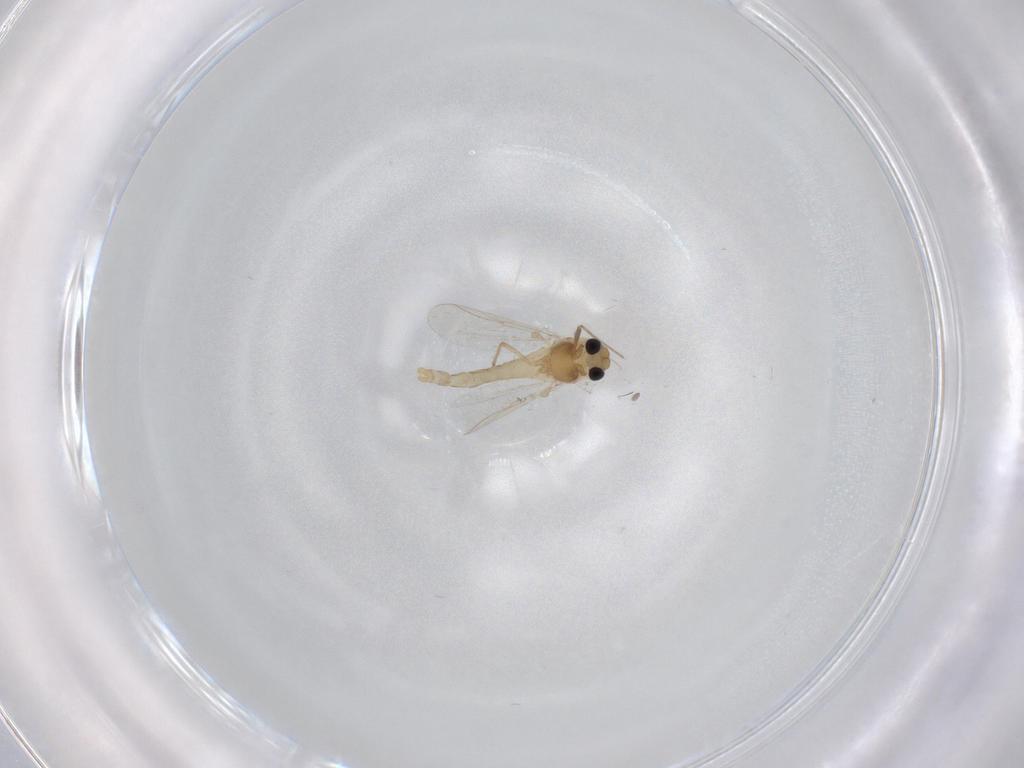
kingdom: Animalia
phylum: Arthropoda
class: Insecta
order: Diptera
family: Chironomidae
